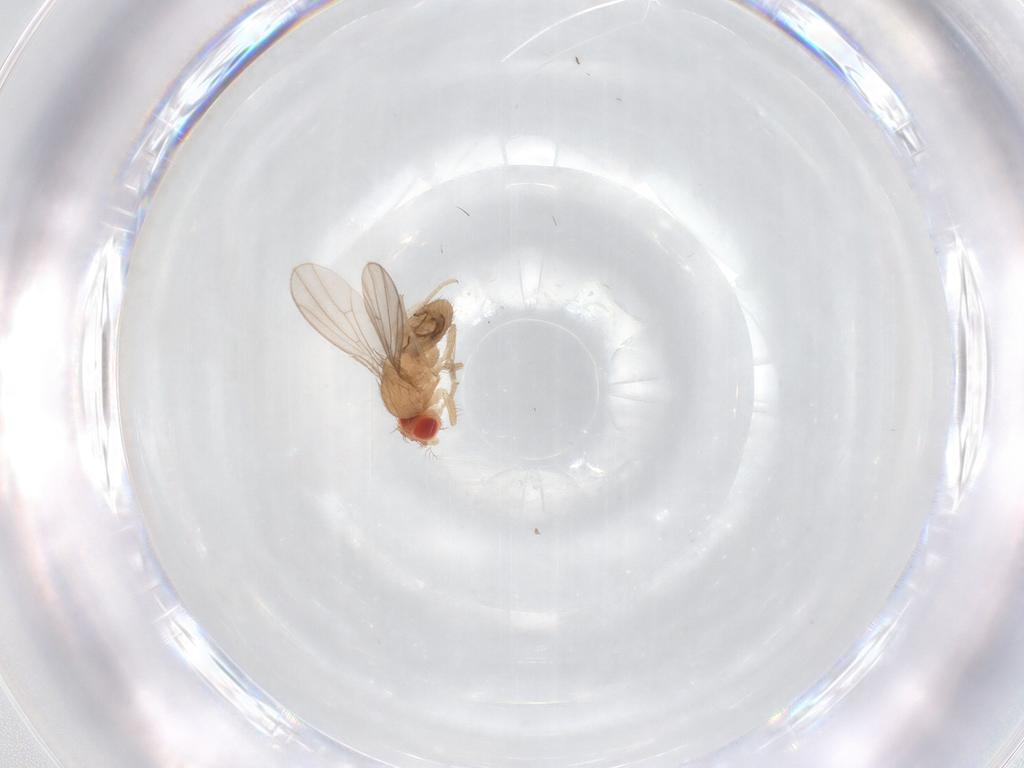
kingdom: Animalia
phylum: Arthropoda
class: Insecta
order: Diptera
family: Drosophilidae
